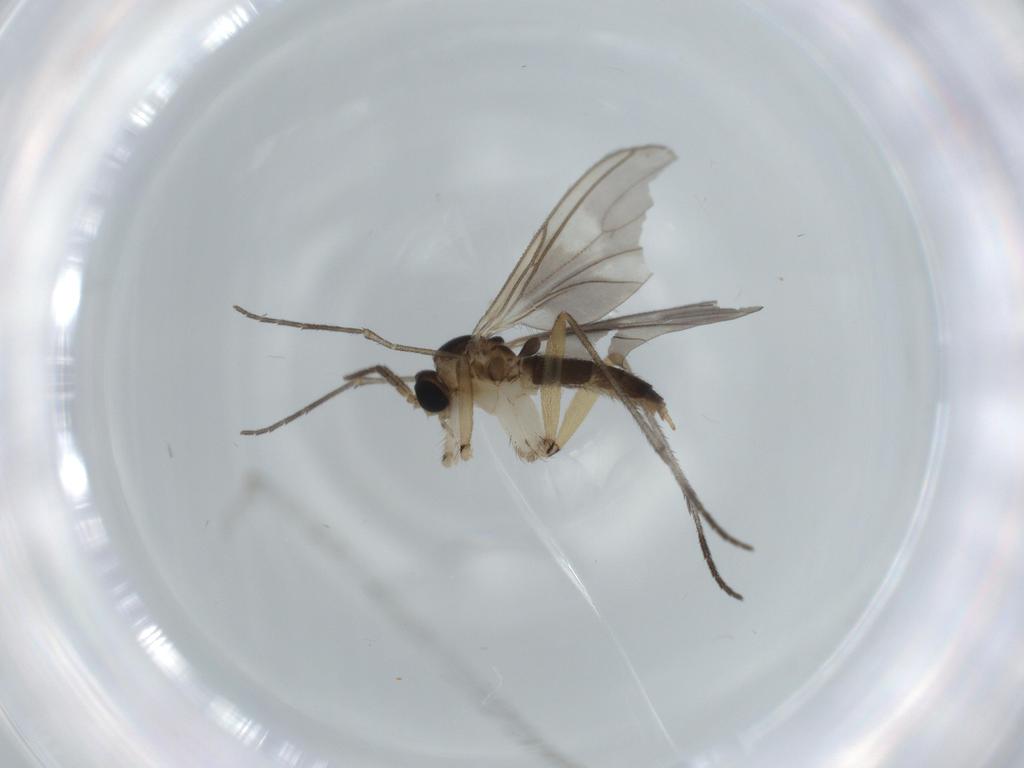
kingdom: Animalia
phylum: Arthropoda
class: Insecta
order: Diptera
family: Sciaridae
